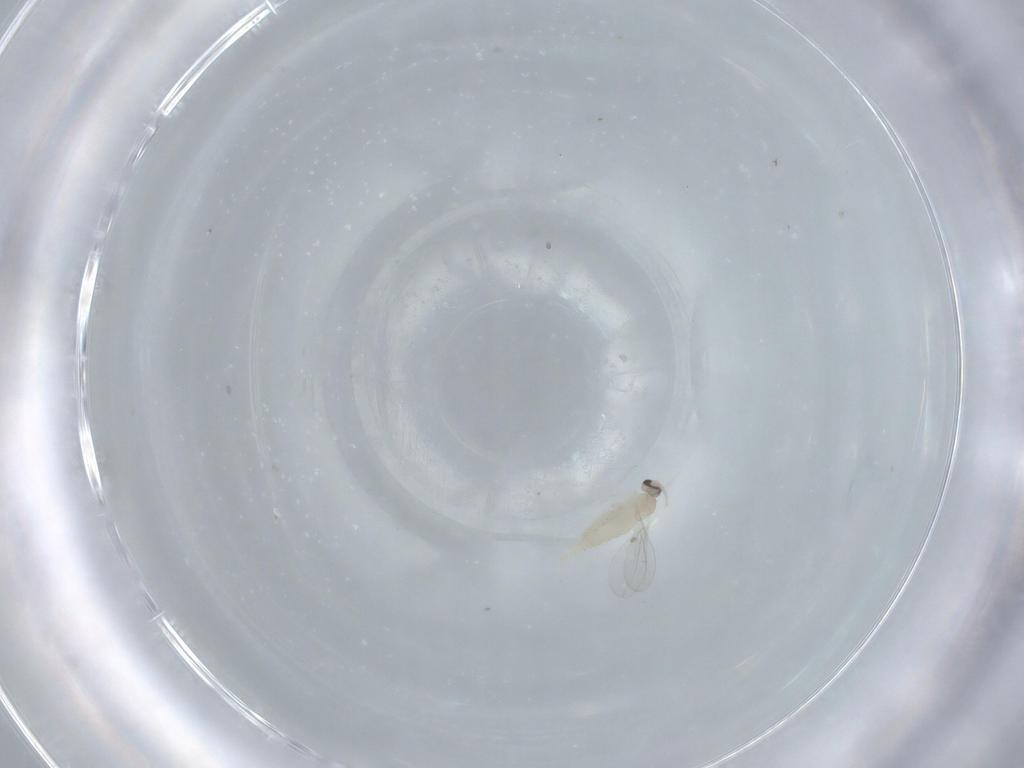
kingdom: Animalia
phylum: Arthropoda
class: Insecta
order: Diptera
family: Cecidomyiidae
